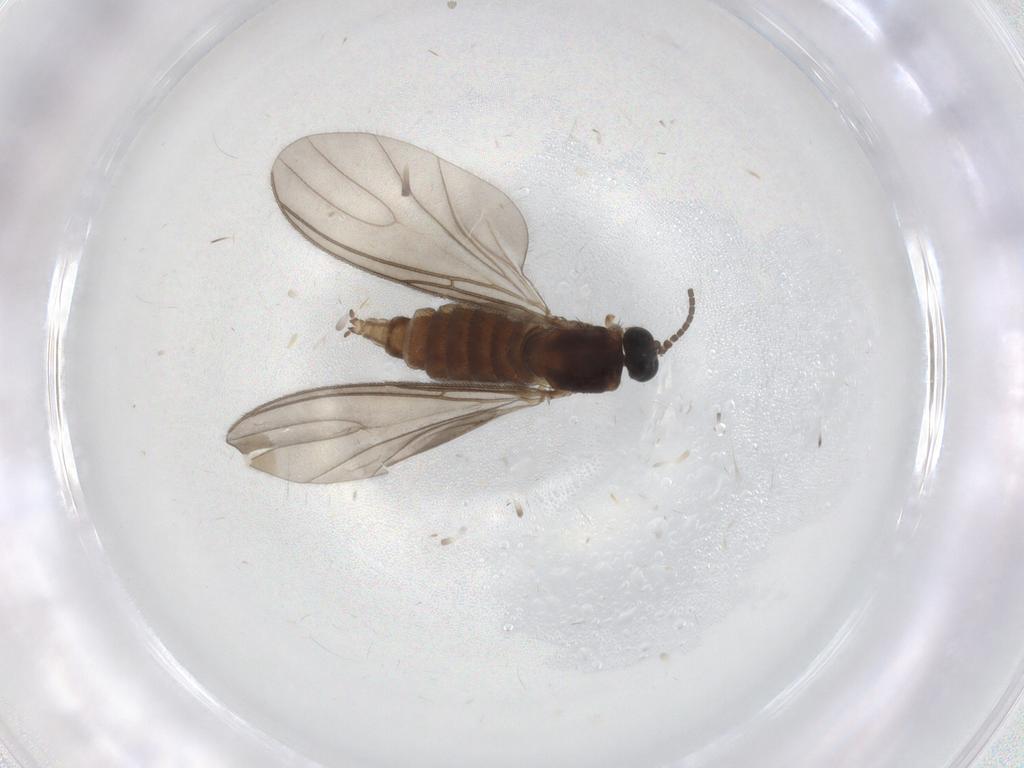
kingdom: Animalia
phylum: Arthropoda
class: Insecta
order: Diptera
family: Sciaridae
